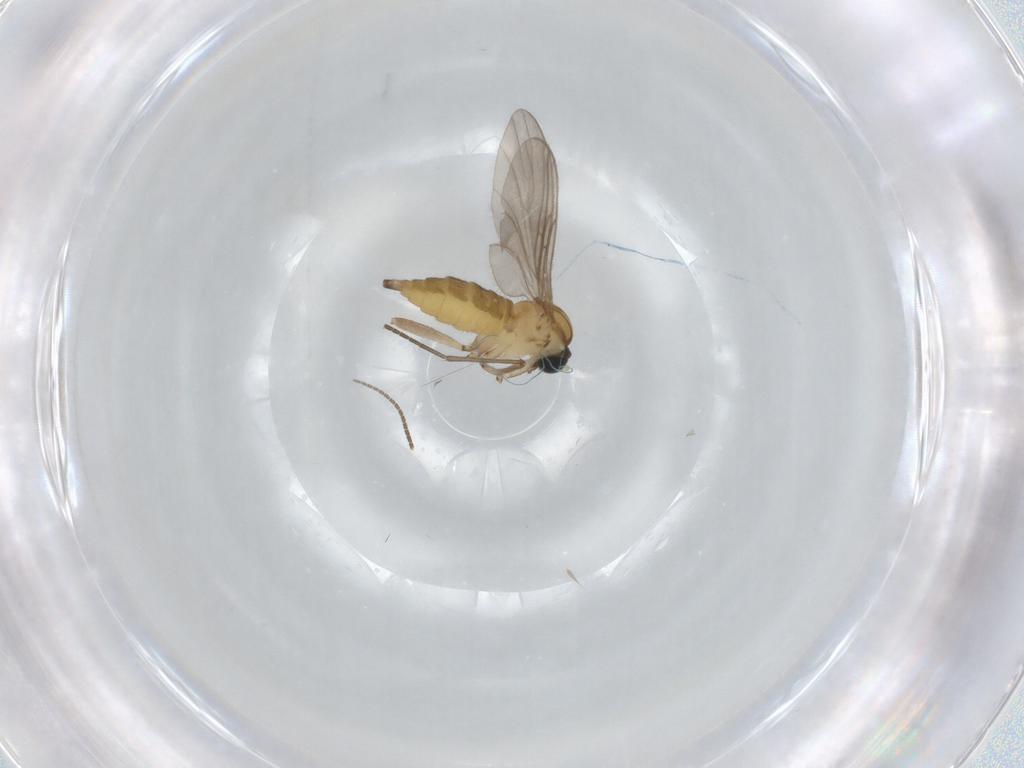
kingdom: Animalia
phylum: Arthropoda
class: Insecta
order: Diptera
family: Sciaridae
